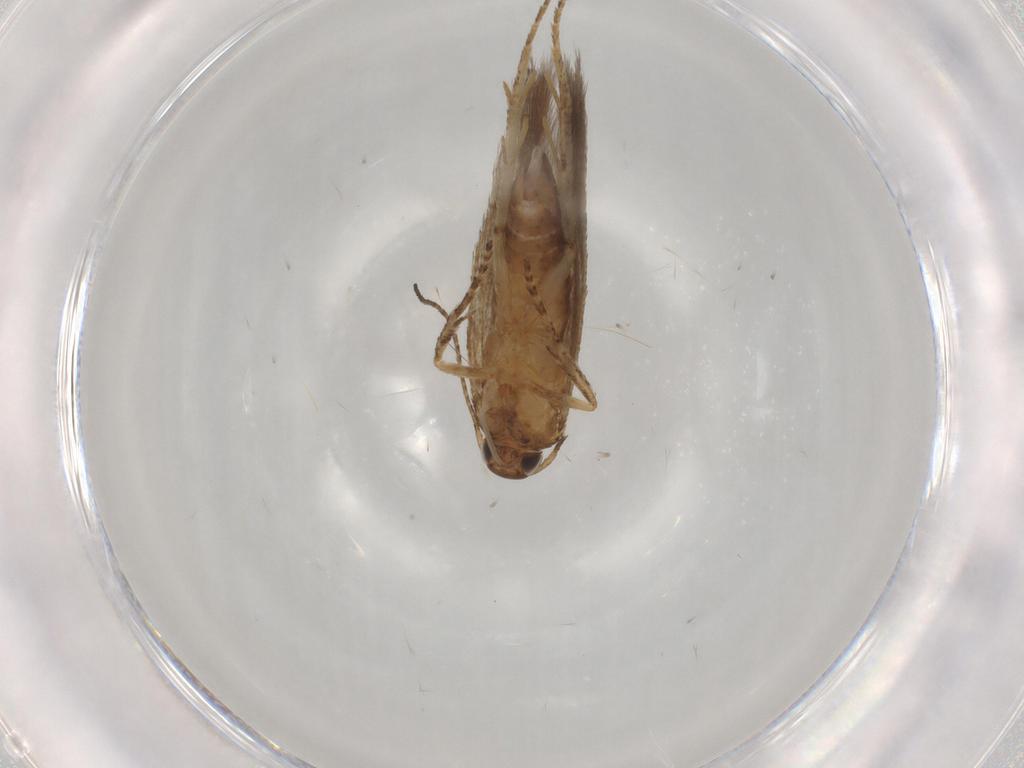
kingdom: Animalia
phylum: Arthropoda
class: Insecta
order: Lepidoptera
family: Gelechiidae
